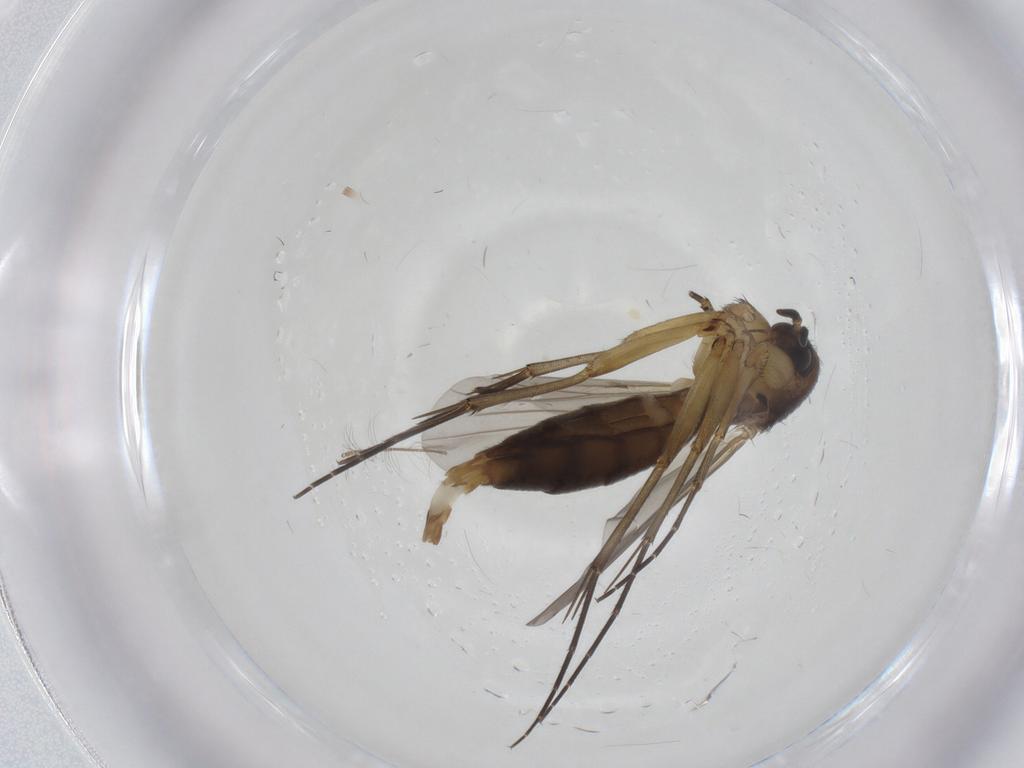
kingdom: Animalia
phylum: Arthropoda
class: Insecta
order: Diptera
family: Mycetophilidae
